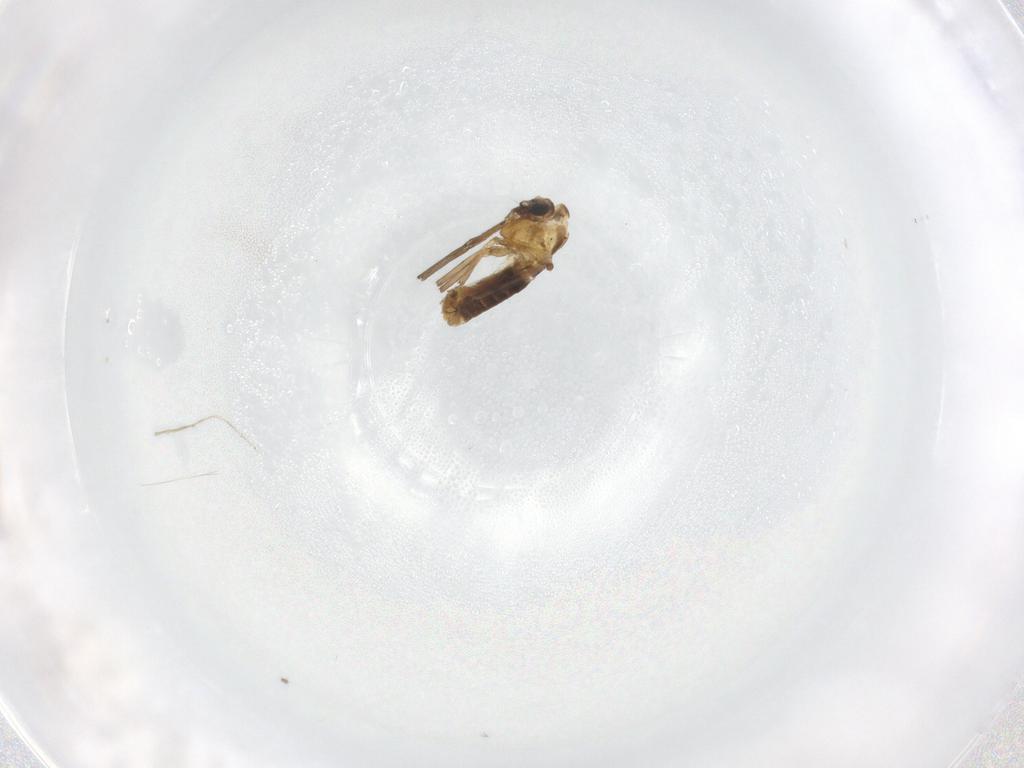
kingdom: Animalia
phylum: Arthropoda
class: Insecta
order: Diptera
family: Chironomidae
